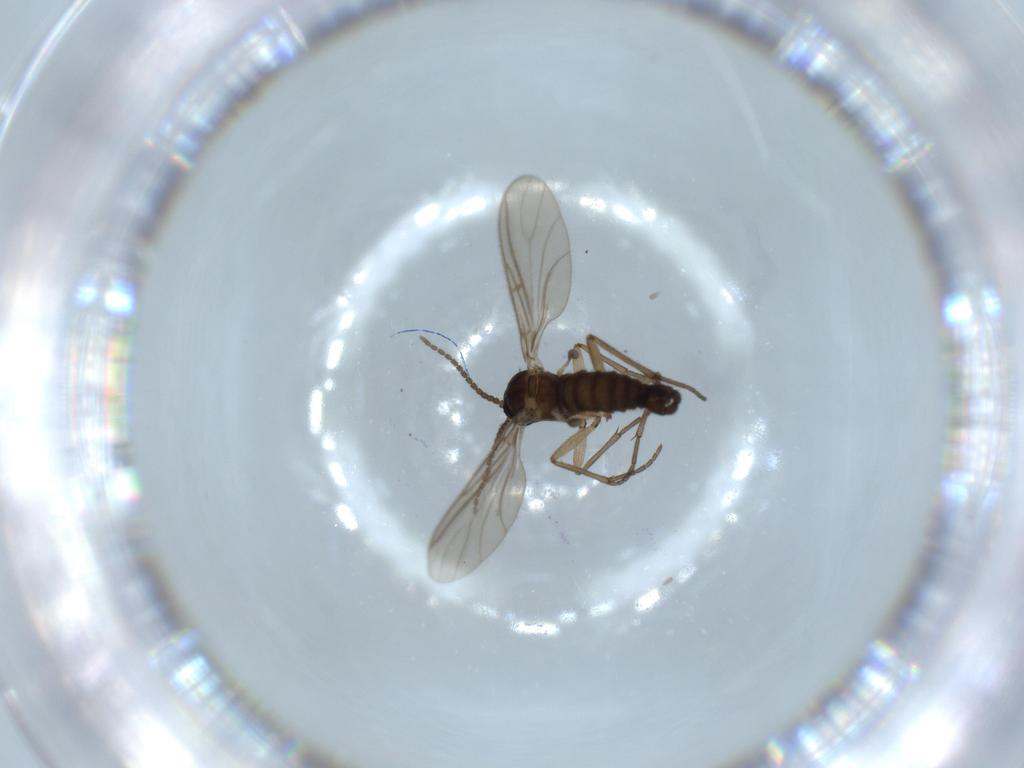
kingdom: Animalia
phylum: Arthropoda
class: Insecta
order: Diptera
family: Sciaridae
